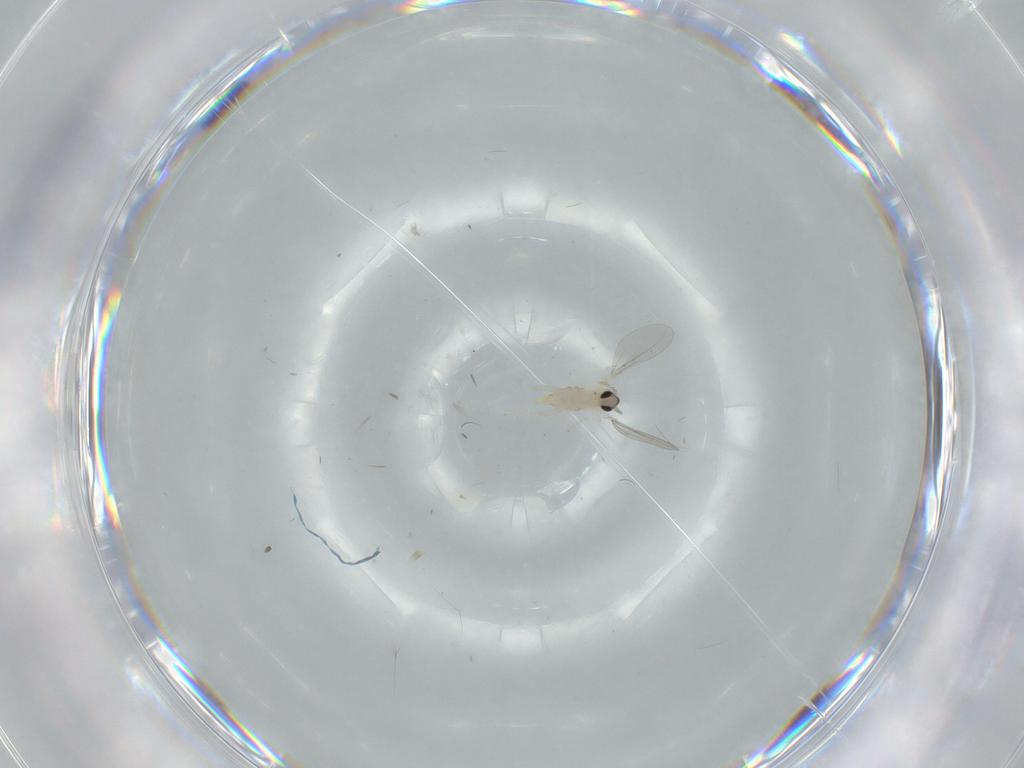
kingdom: Animalia
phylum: Arthropoda
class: Insecta
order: Diptera
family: Cecidomyiidae
